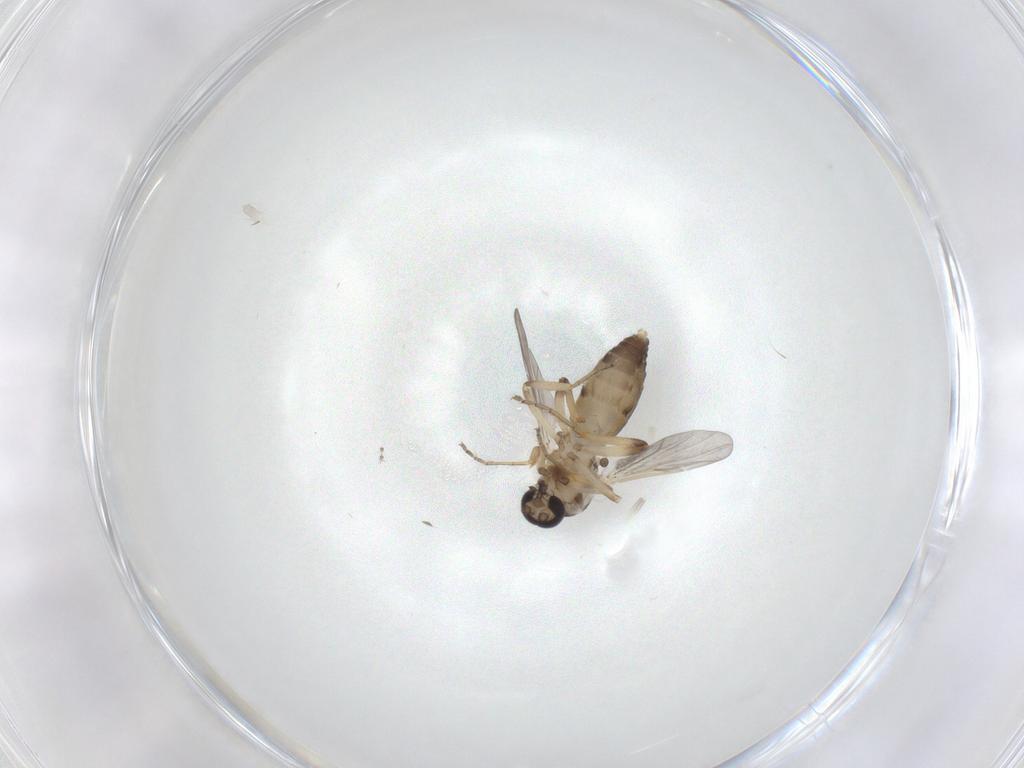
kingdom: Animalia
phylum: Arthropoda
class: Insecta
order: Diptera
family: Ceratopogonidae
